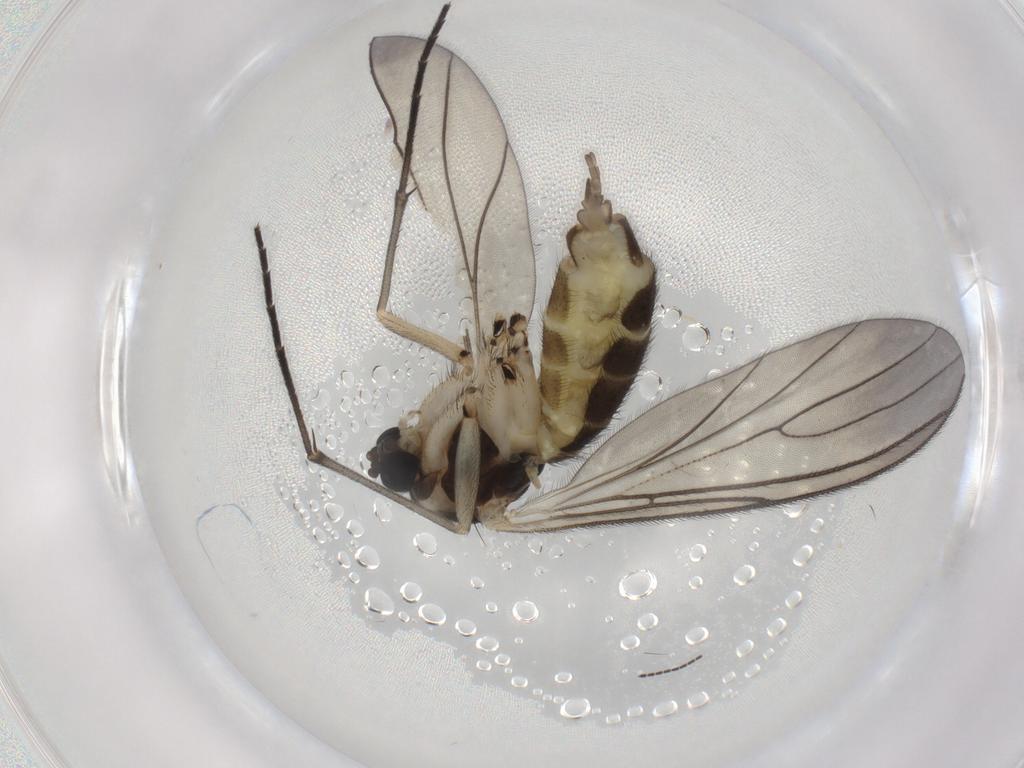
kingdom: Animalia
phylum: Arthropoda
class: Insecta
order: Diptera
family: Sciaridae
